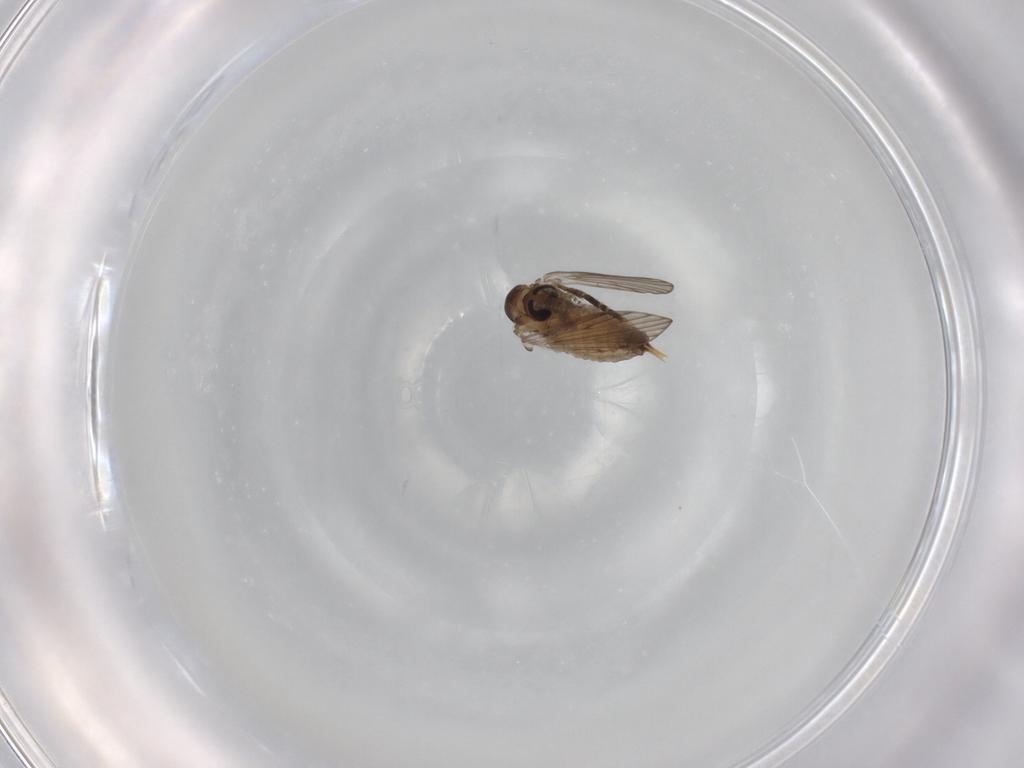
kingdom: Animalia
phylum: Arthropoda
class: Insecta
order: Diptera
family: Psychodidae
